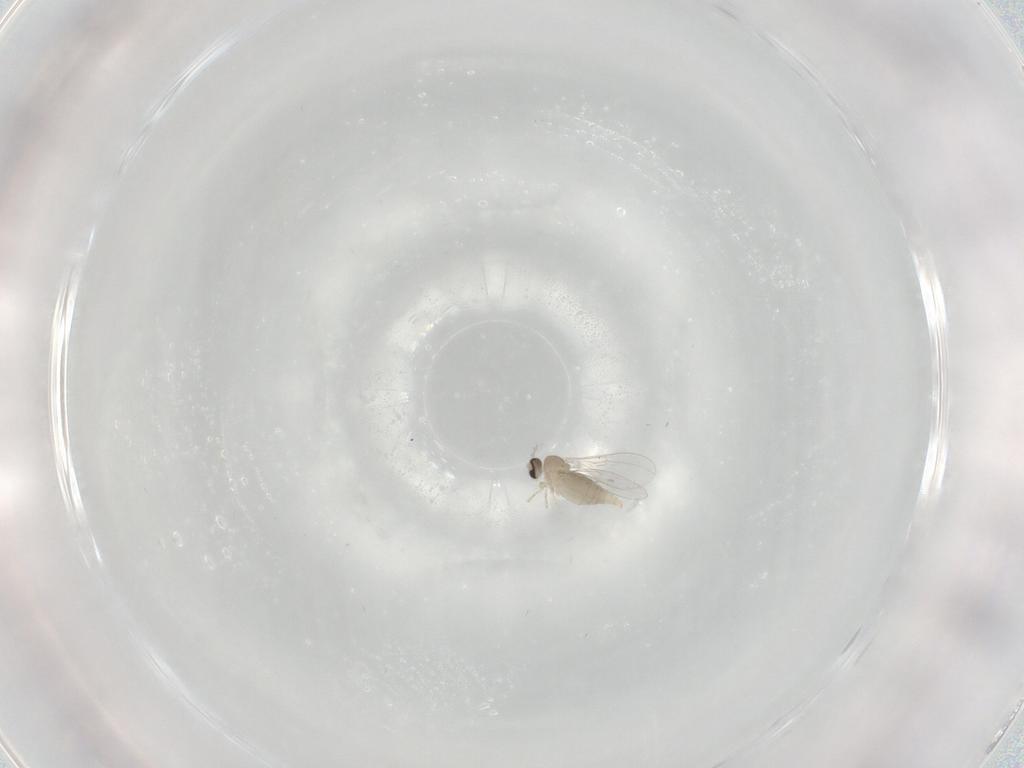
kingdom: Animalia
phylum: Arthropoda
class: Insecta
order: Diptera
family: Cecidomyiidae
